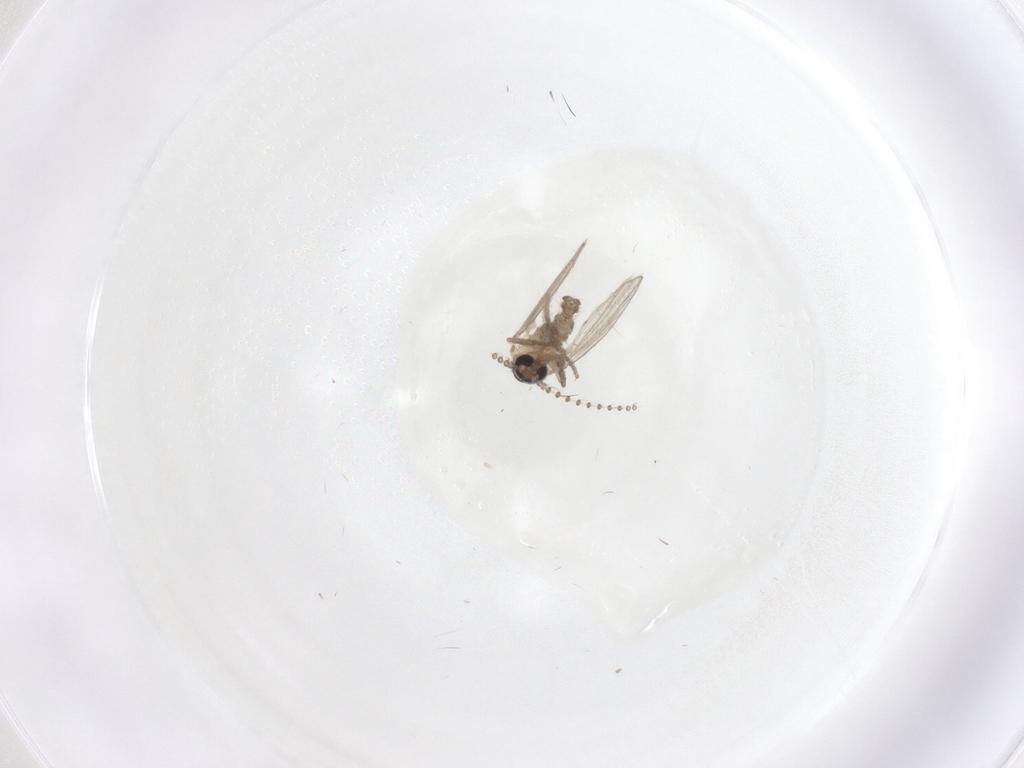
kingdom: Animalia
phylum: Arthropoda
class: Insecta
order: Diptera
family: Psychodidae
